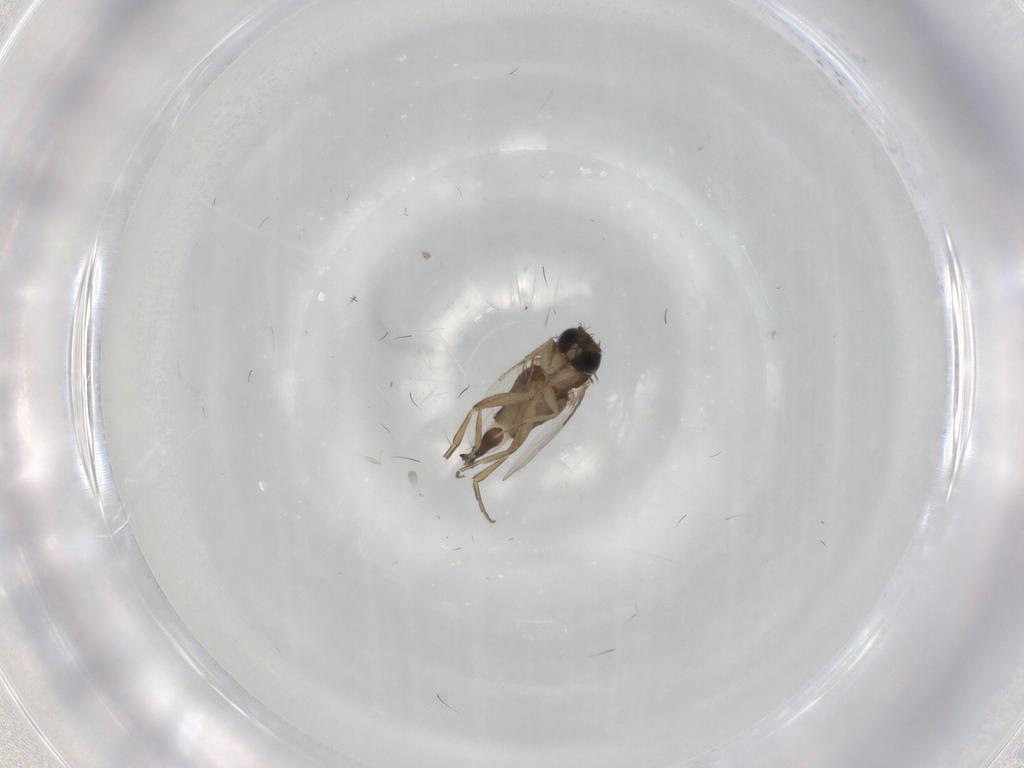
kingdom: Animalia
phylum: Arthropoda
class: Insecta
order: Diptera
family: Phoridae
